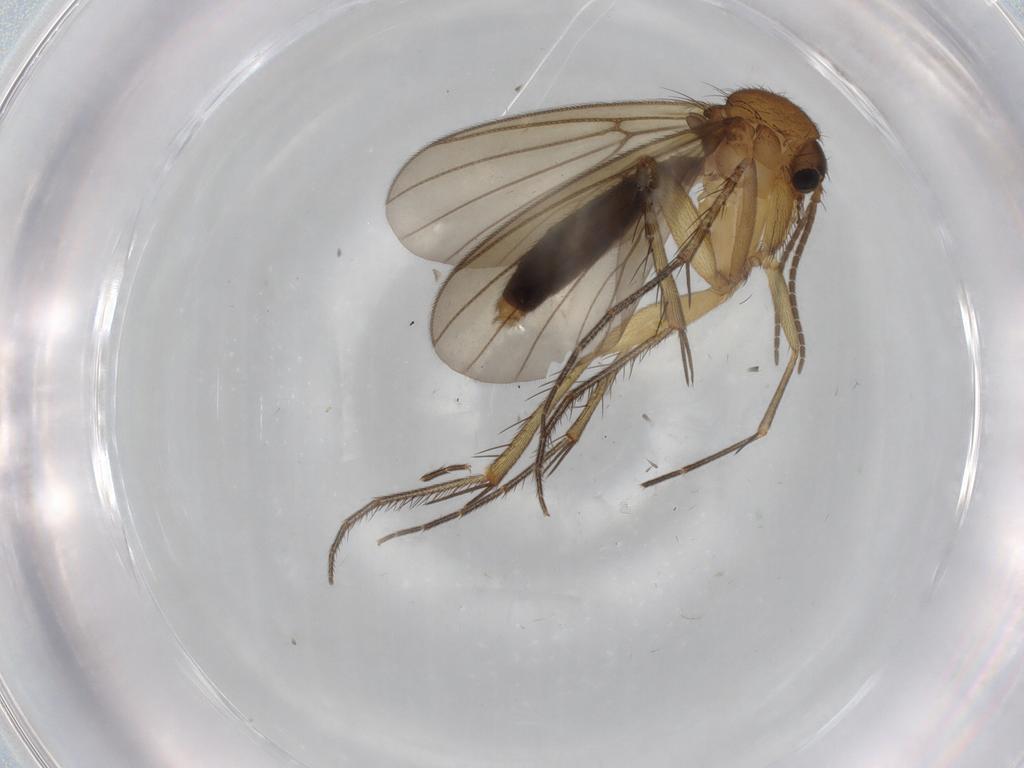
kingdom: Animalia
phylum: Arthropoda
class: Insecta
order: Diptera
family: Mycetophilidae
